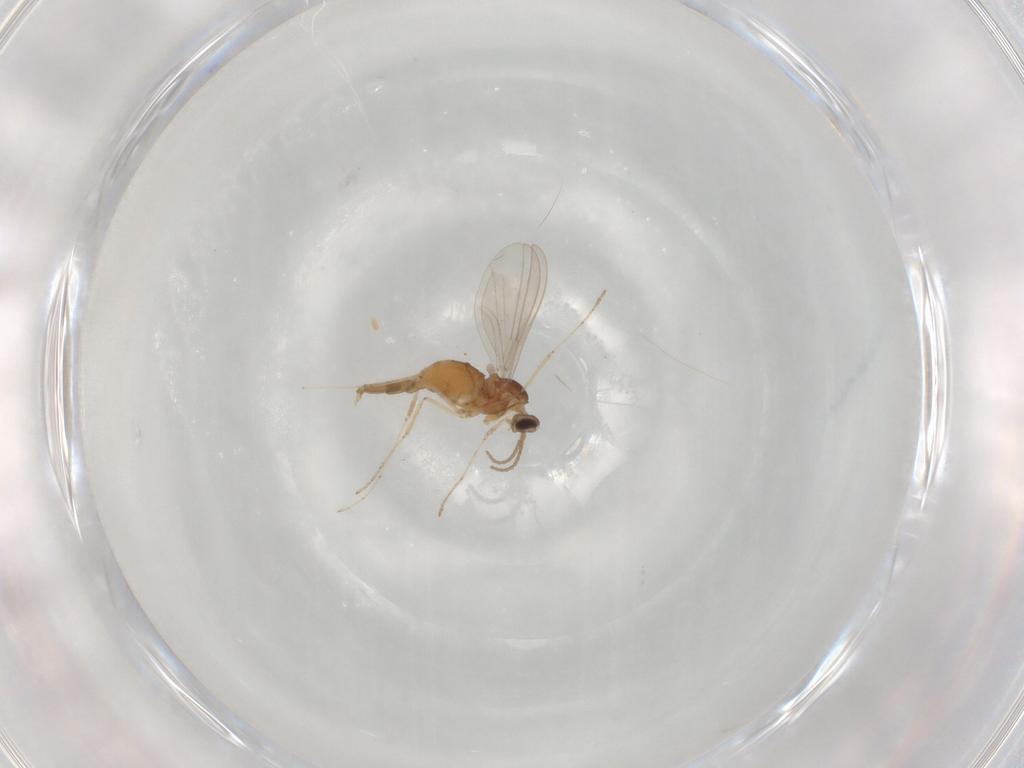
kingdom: Animalia
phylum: Arthropoda
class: Insecta
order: Diptera
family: Cecidomyiidae
